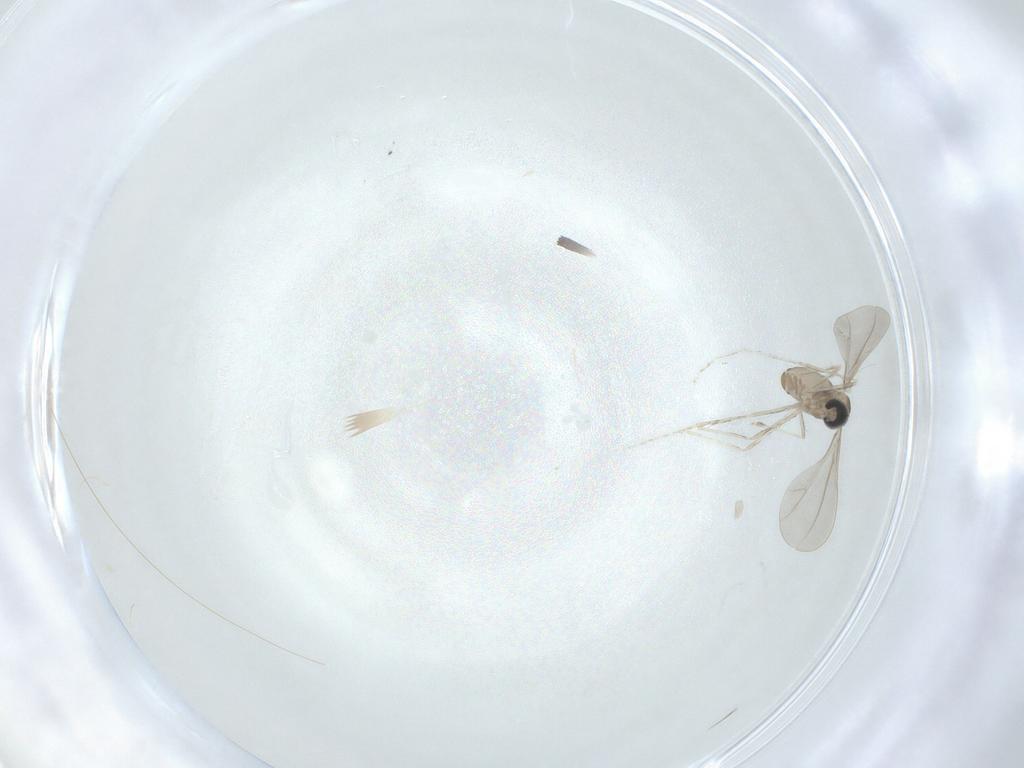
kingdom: Animalia
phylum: Arthropoda
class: Insecta
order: Diptera
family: Cecidomyiidae
